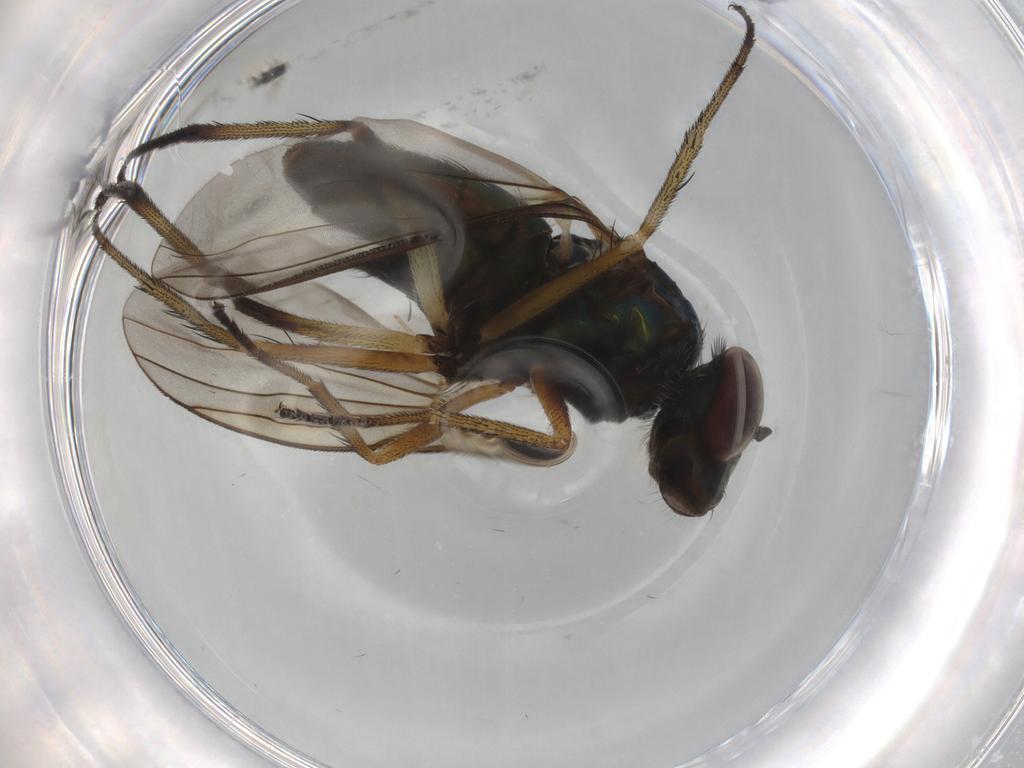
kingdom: Animalia
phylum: Arthropoda
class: Insecta
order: Diptera
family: Cecidomyiidae
